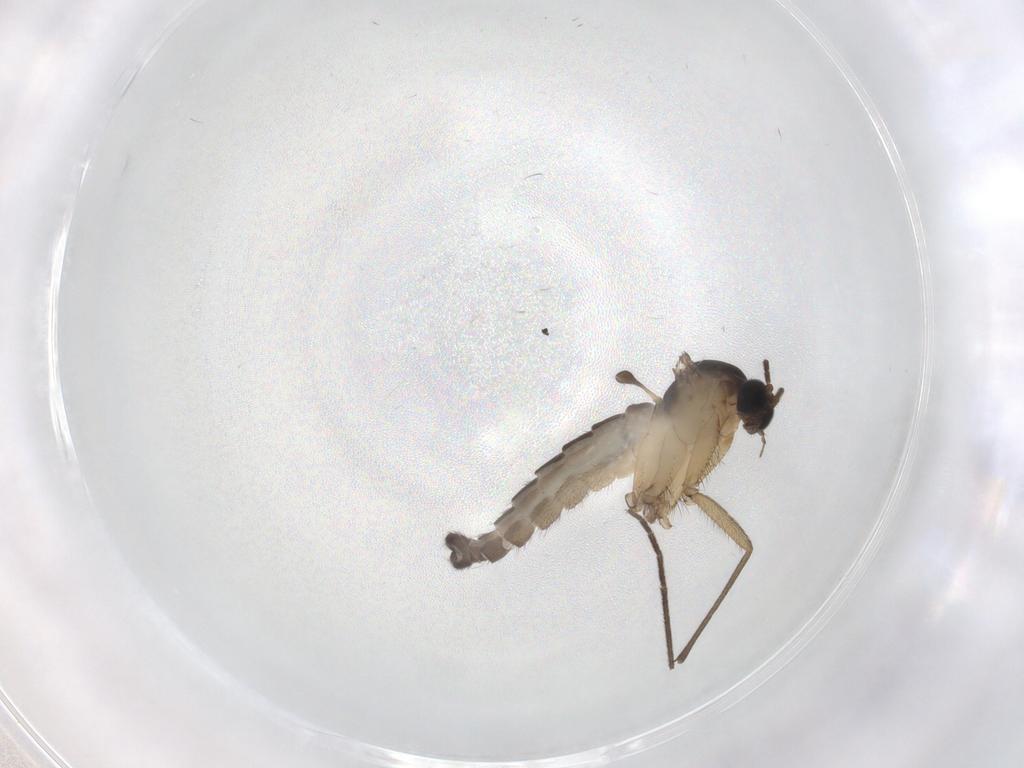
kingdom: Animalia
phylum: Arthropoda
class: Insecta
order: Diptera
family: Sciaridae
